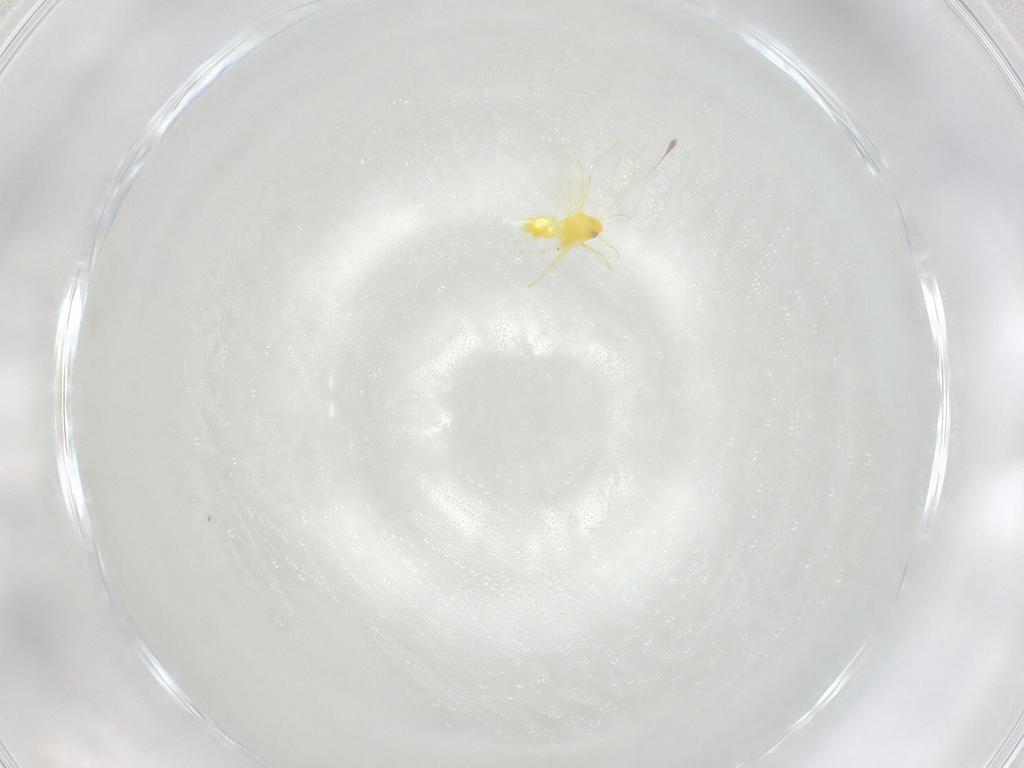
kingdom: Animalia
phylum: Arthropoda
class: Insecta
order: Hemiptera
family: Aleyrodidae
